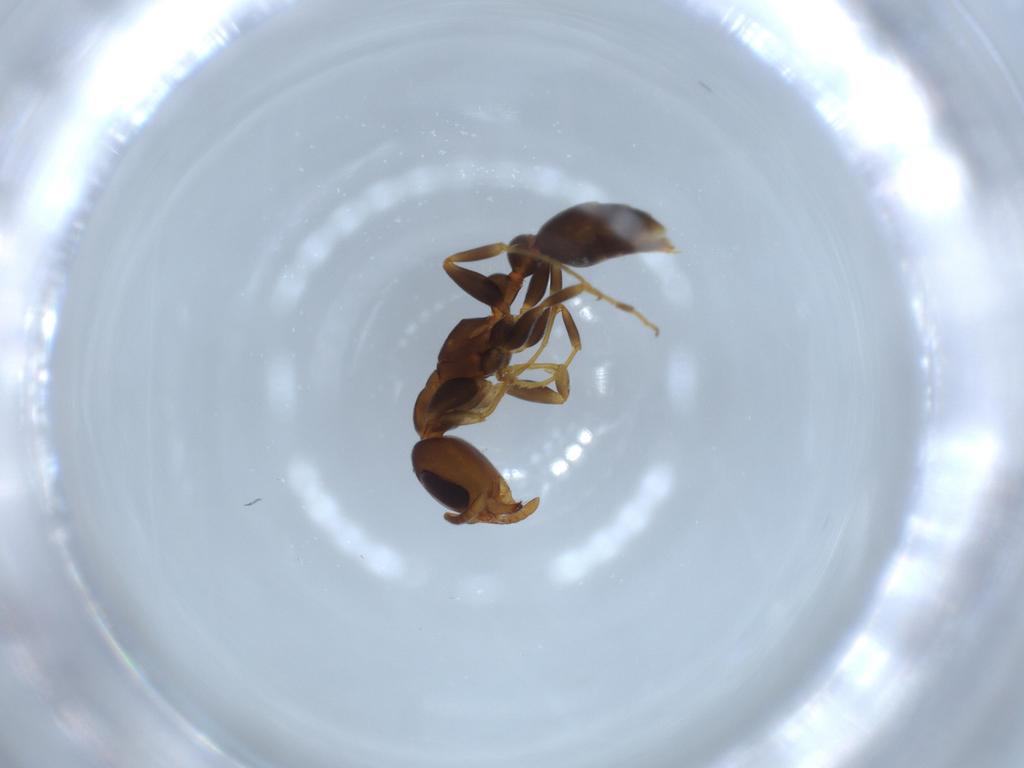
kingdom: Animalia
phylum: Arthropoda
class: Insecta
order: Hymenoptera
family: Formicidae
